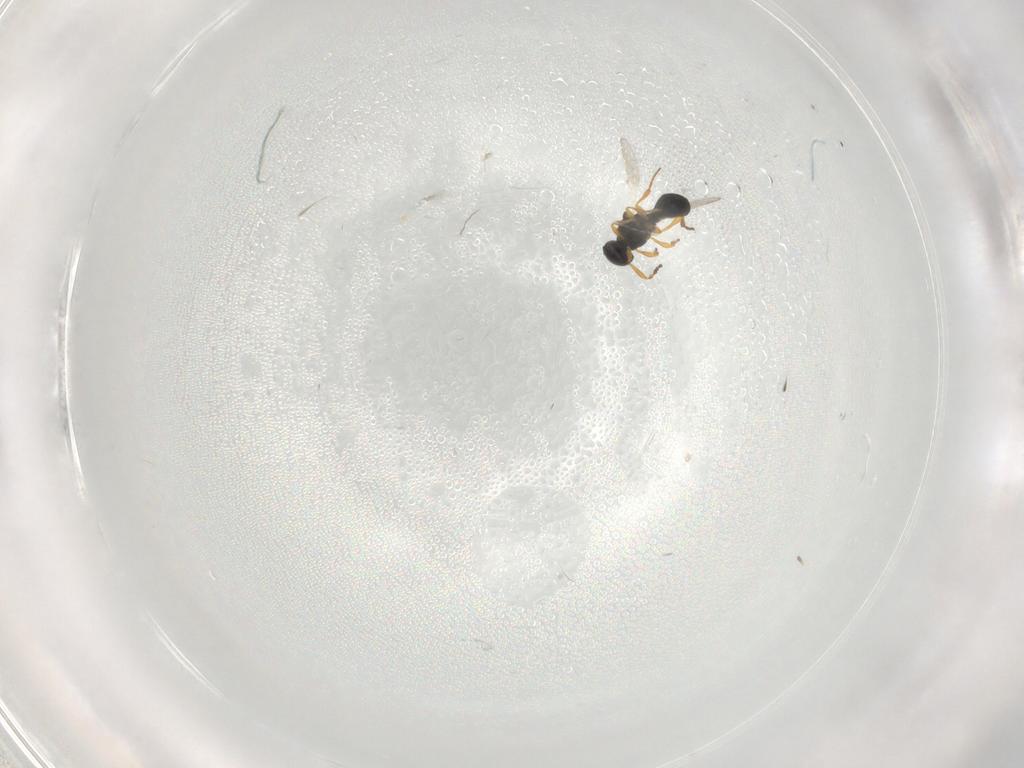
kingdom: Animalia
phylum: Arthropoda
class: Insecta
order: Hymenoptera
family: Platygastridae
